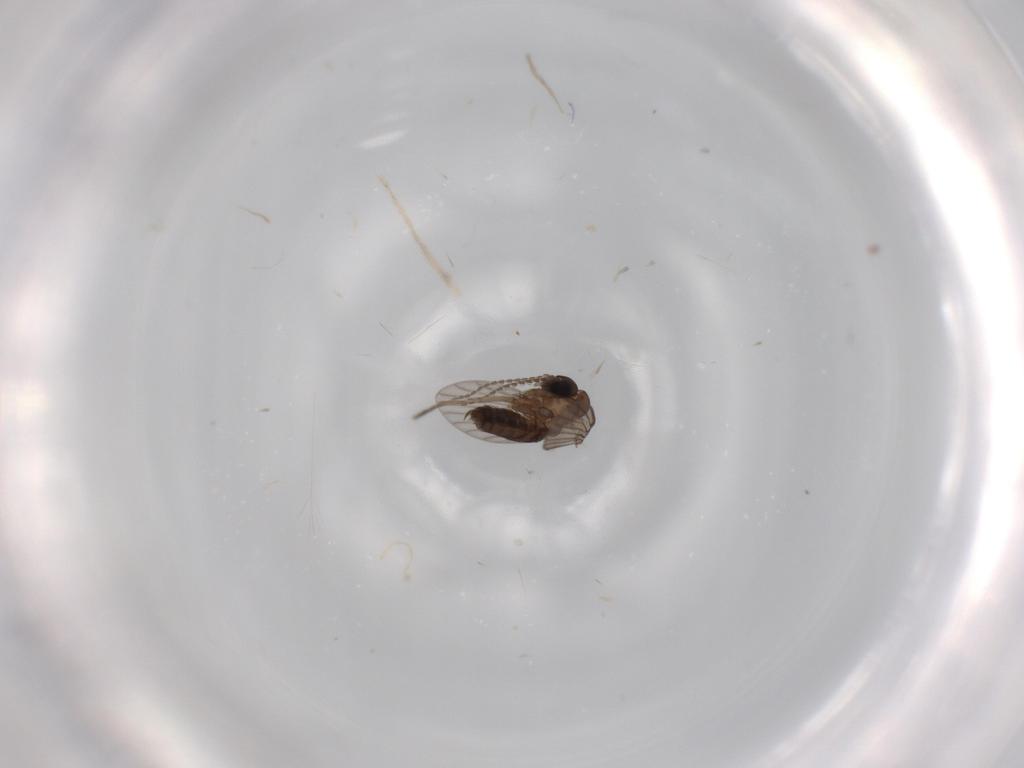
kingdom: Animalia
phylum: Arthropoda
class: Insecta
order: Diptera
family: Cecidomyiidae
